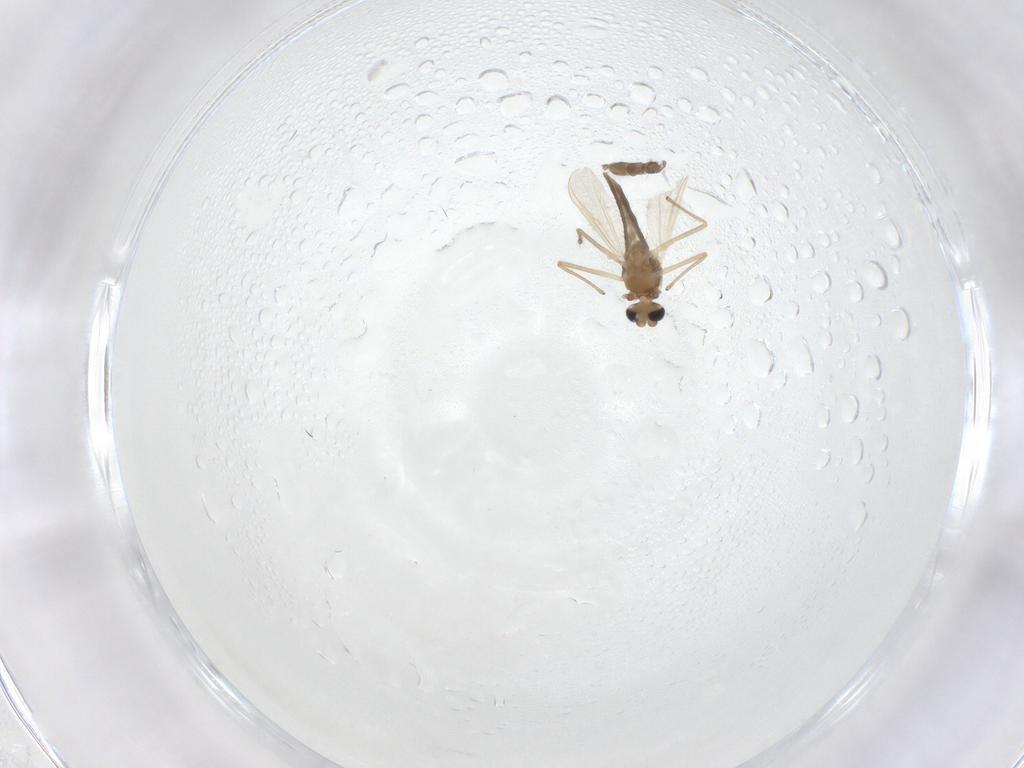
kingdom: Animalia
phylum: Arthropoda
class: Insecta
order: Diptera
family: Chironomidae
